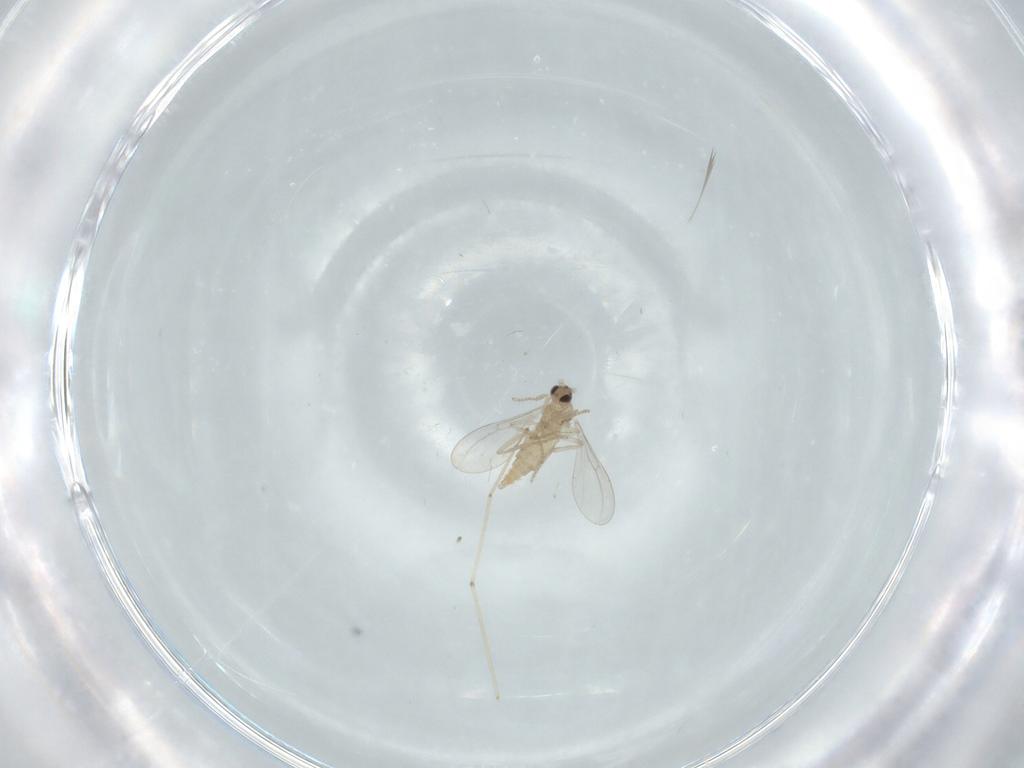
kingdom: Animalia
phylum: Arthropoda
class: Insecta
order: Diptera
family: Cecidomyiidae
